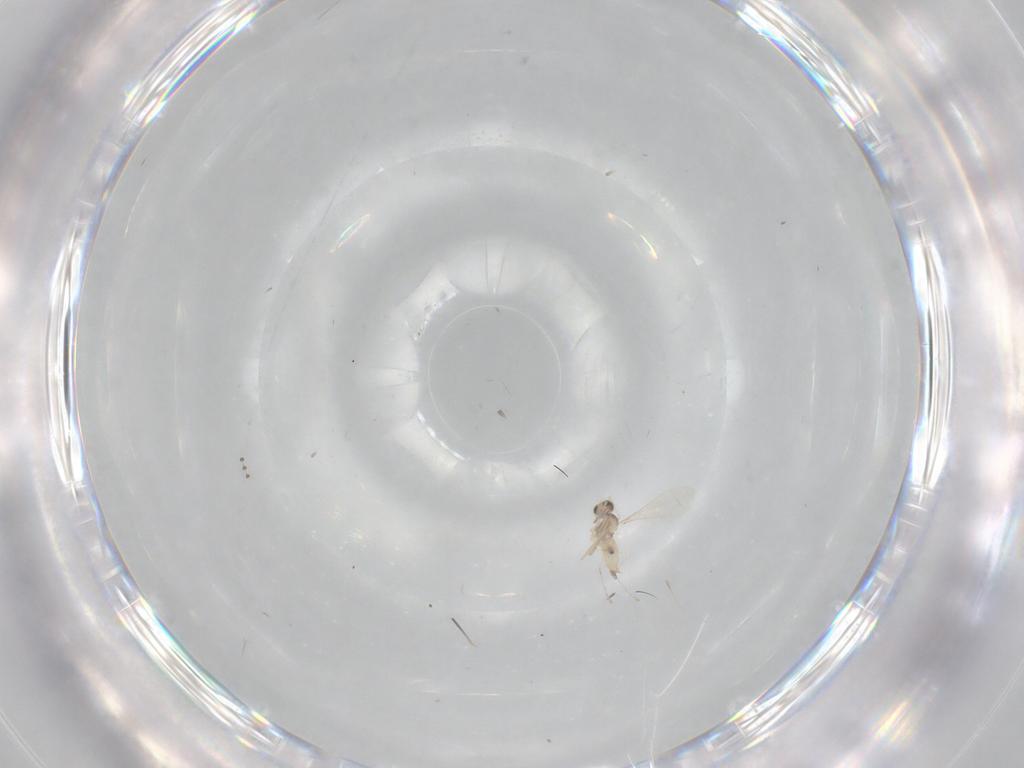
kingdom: Animalia
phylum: Arthropoda
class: Insecta
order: Diptera
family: Cecidomyiidae
